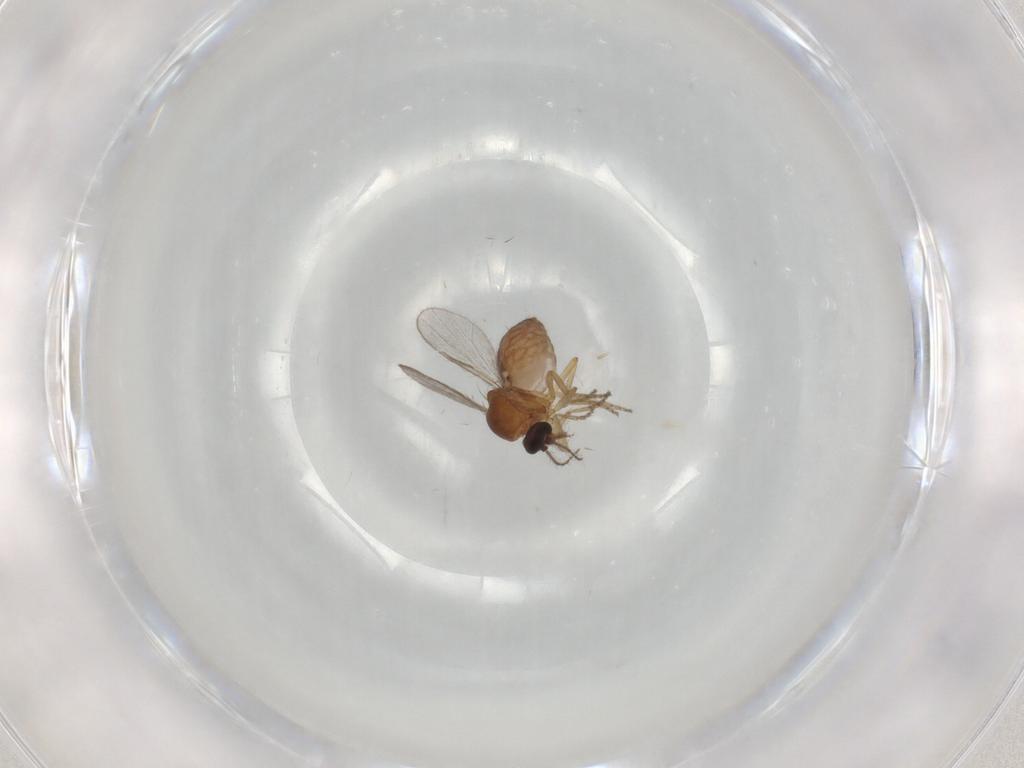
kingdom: Animalia
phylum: Arthropoda
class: Insecta
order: Diptera
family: Ceratopogonidae
